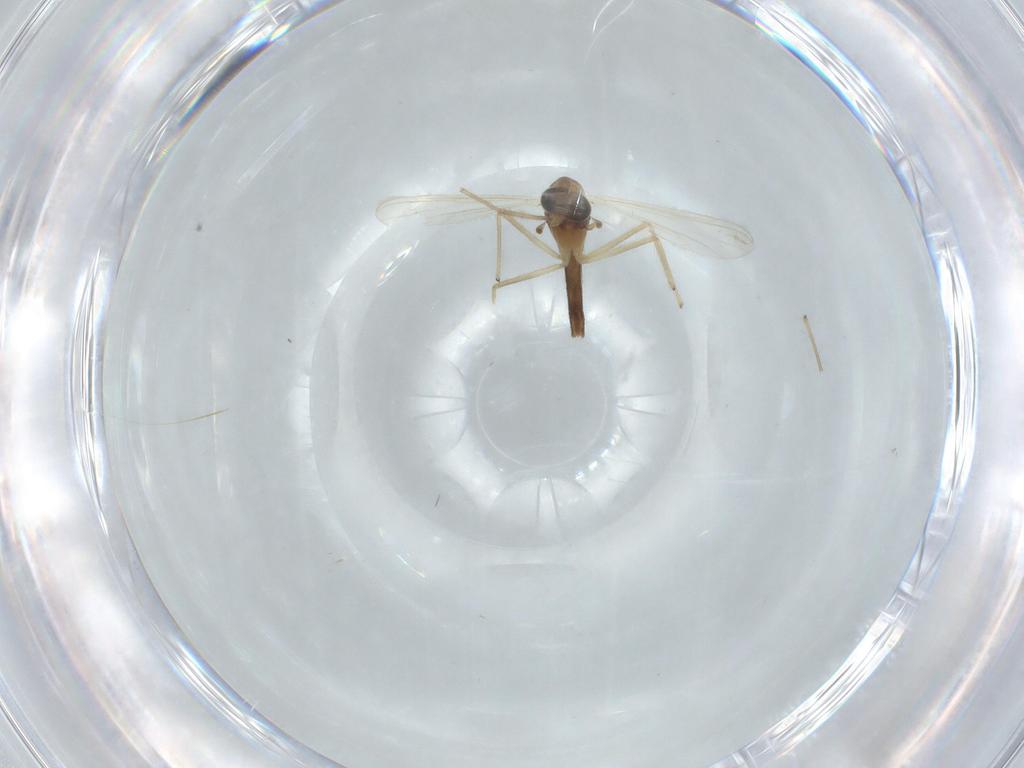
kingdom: Animalia
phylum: Arthropoda
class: Insecta
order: Diptera
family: Chironomidae
